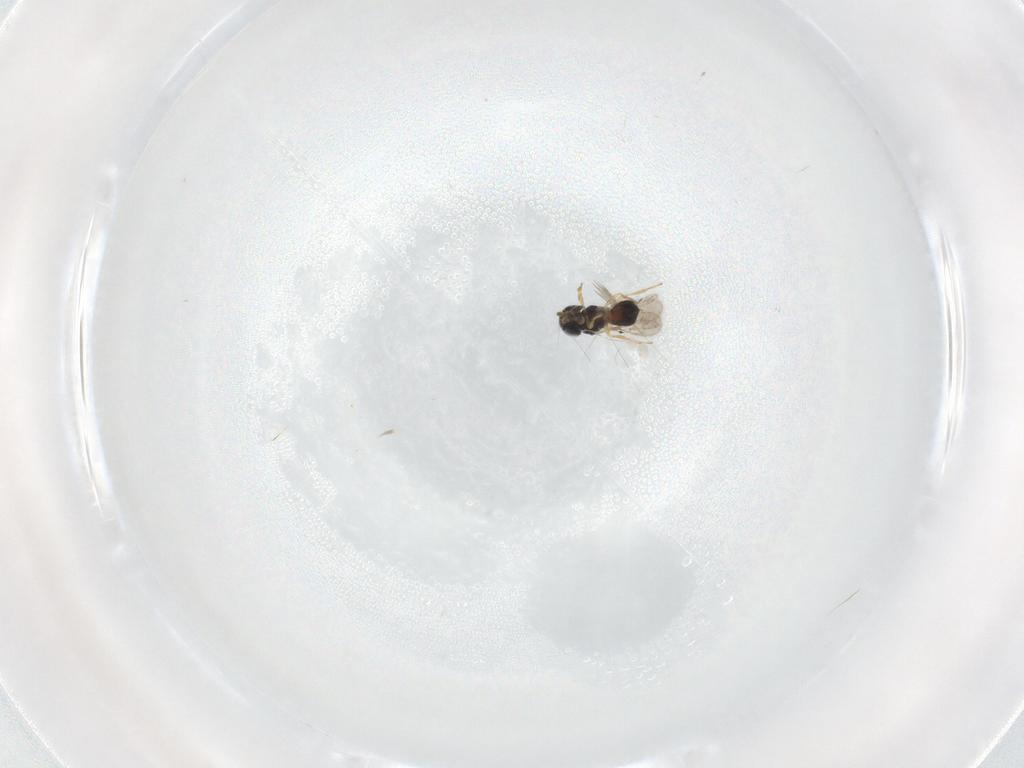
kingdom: Animalia
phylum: Arthropoda
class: Insecta
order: Hymenoptera
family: Scelionidae
